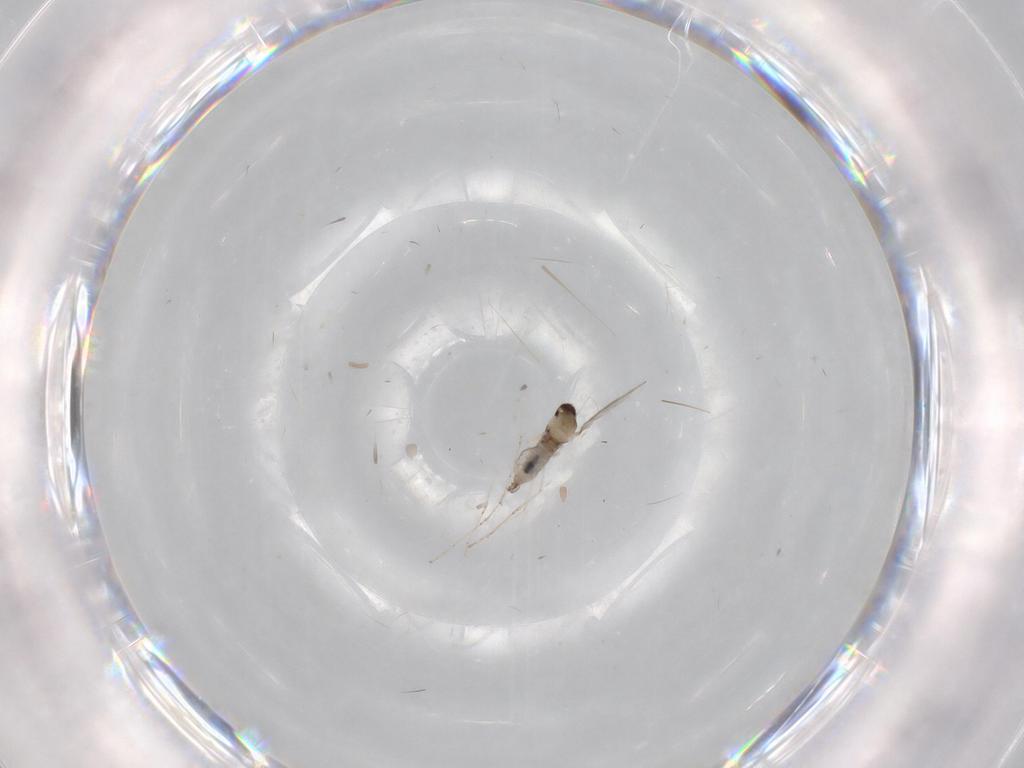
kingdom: Animalia
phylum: Arthropoda
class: Insecta
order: Diptera
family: Cecidomyiidae
